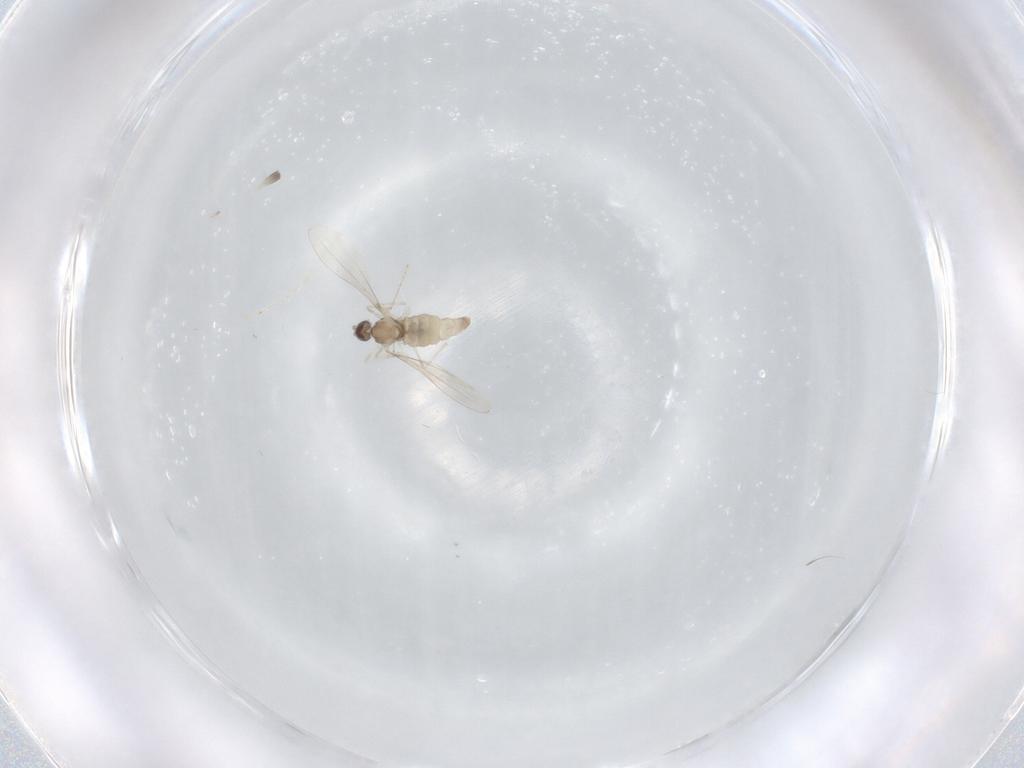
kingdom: Animalia
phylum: Arthropoda
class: Insecta
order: Diptera
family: Cecidomyiidae
